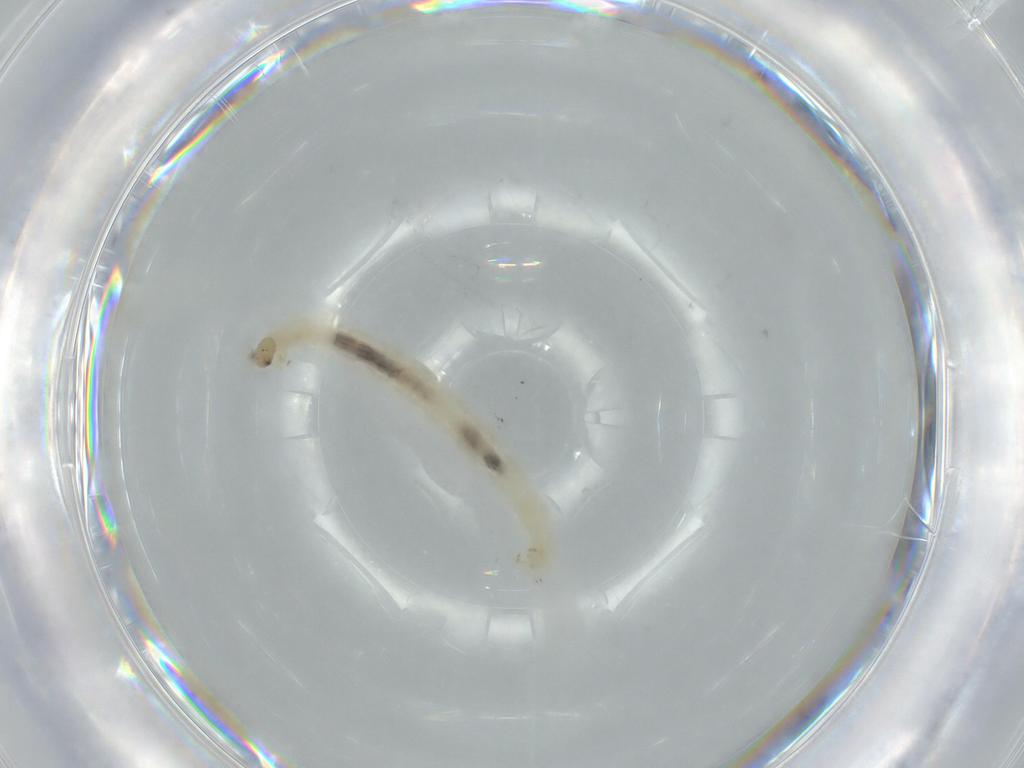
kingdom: Animalia
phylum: Arthropoda
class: Insecta
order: Diptera
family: Chironomidae
